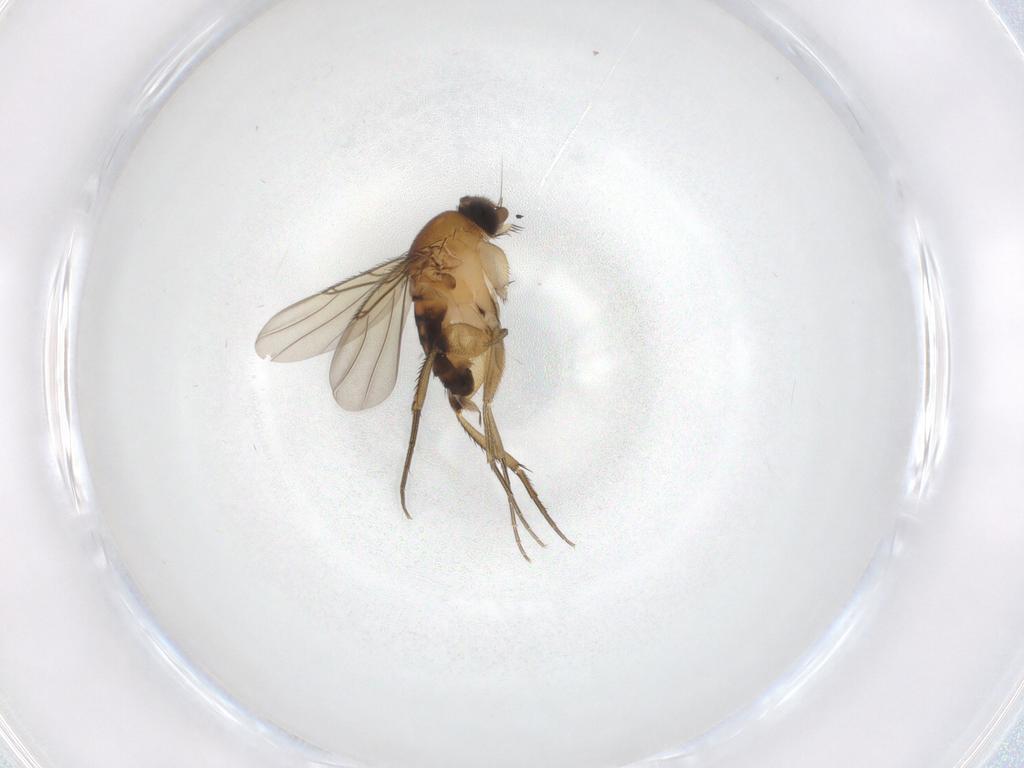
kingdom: Animalia
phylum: Arthropoda
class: Insecta
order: Diptera
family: Phoridae
